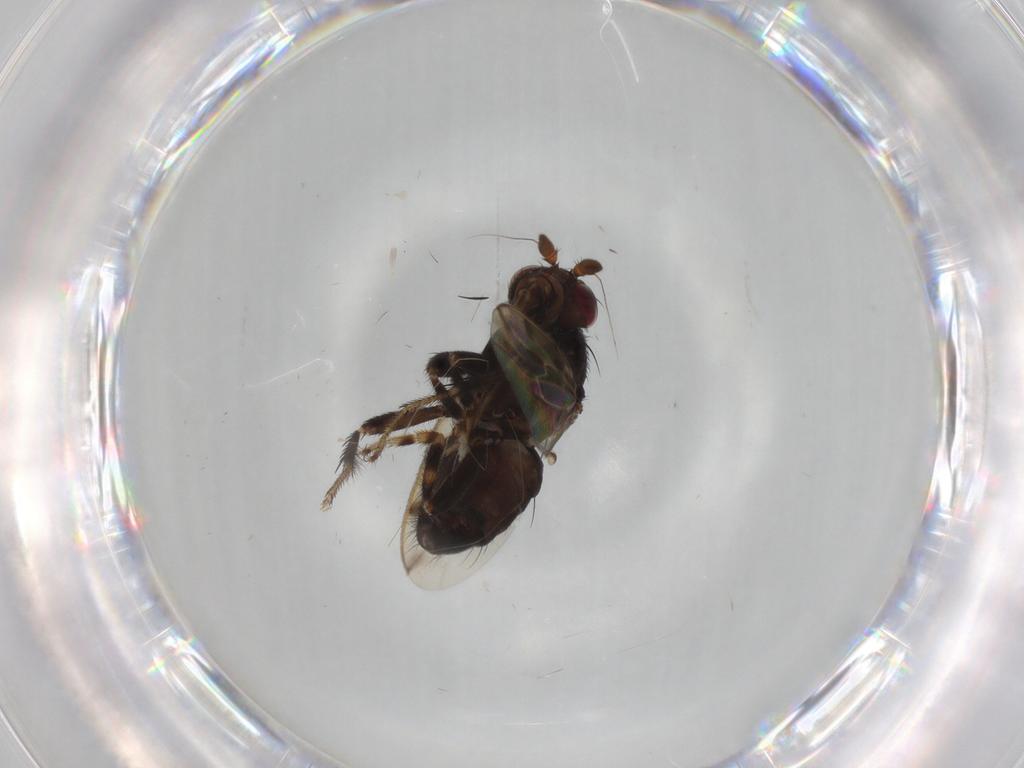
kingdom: Animalia
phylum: Arthropoda
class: Insecta
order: Diptera
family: Sphaeroceridae
